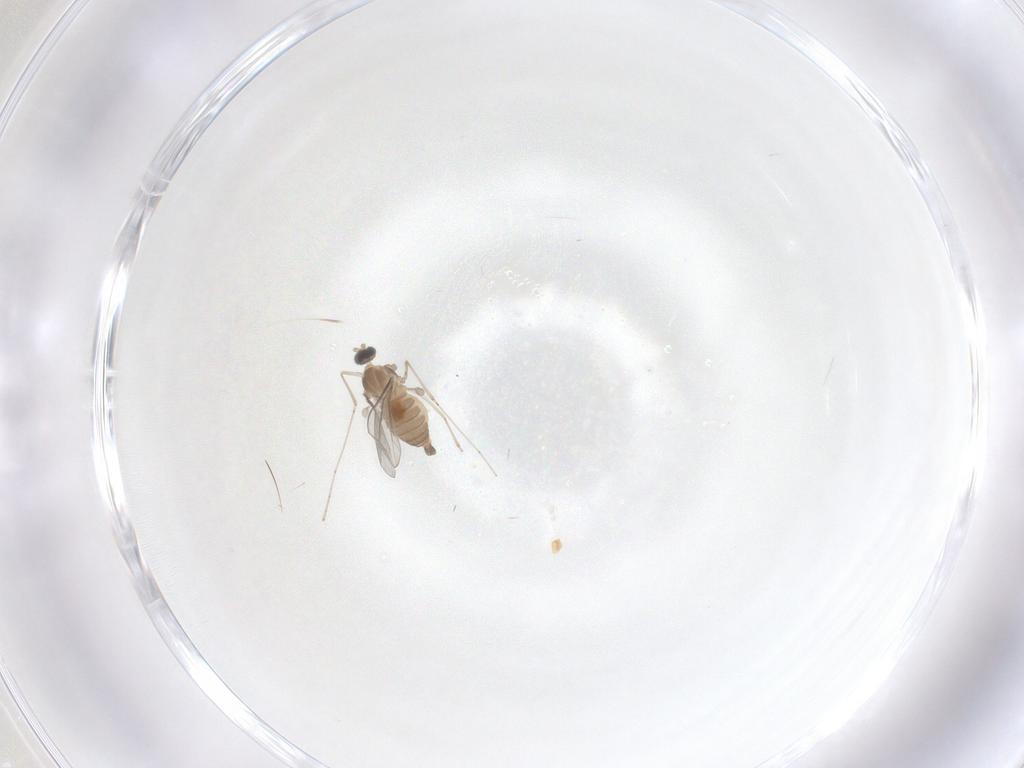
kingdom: Animalia
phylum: Arthropoda
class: Insecta
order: Diptera
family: Cecidomyiidae
